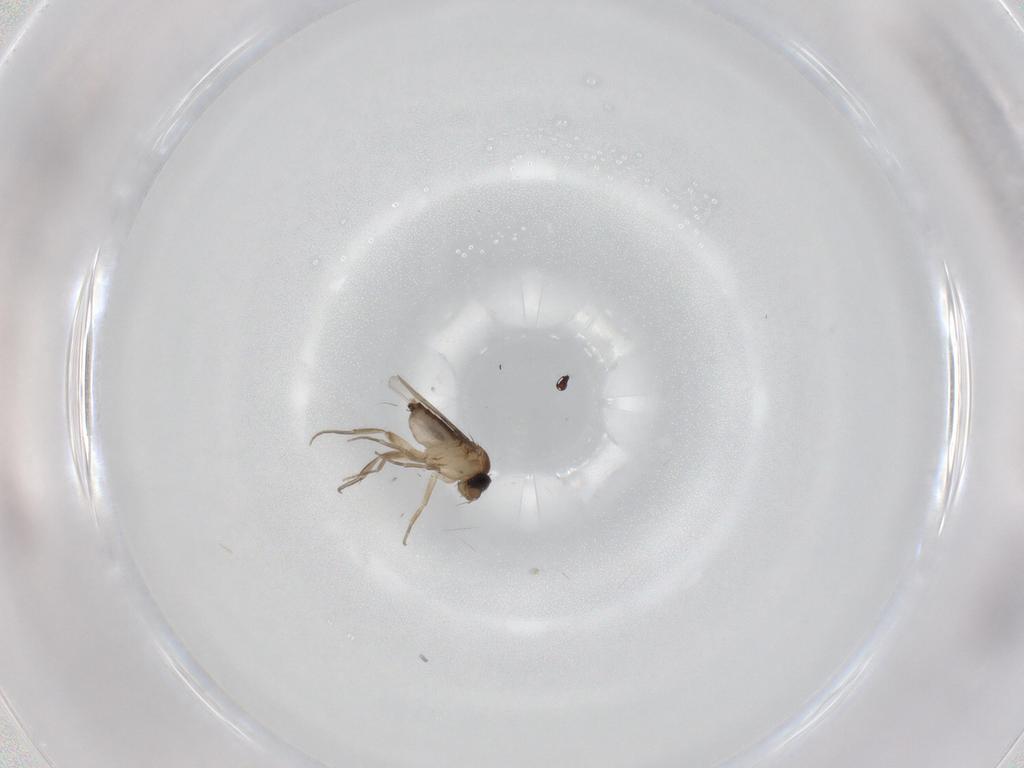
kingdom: Animalia
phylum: Arthropoda
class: Insecta
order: Diptera
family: Phoridae
